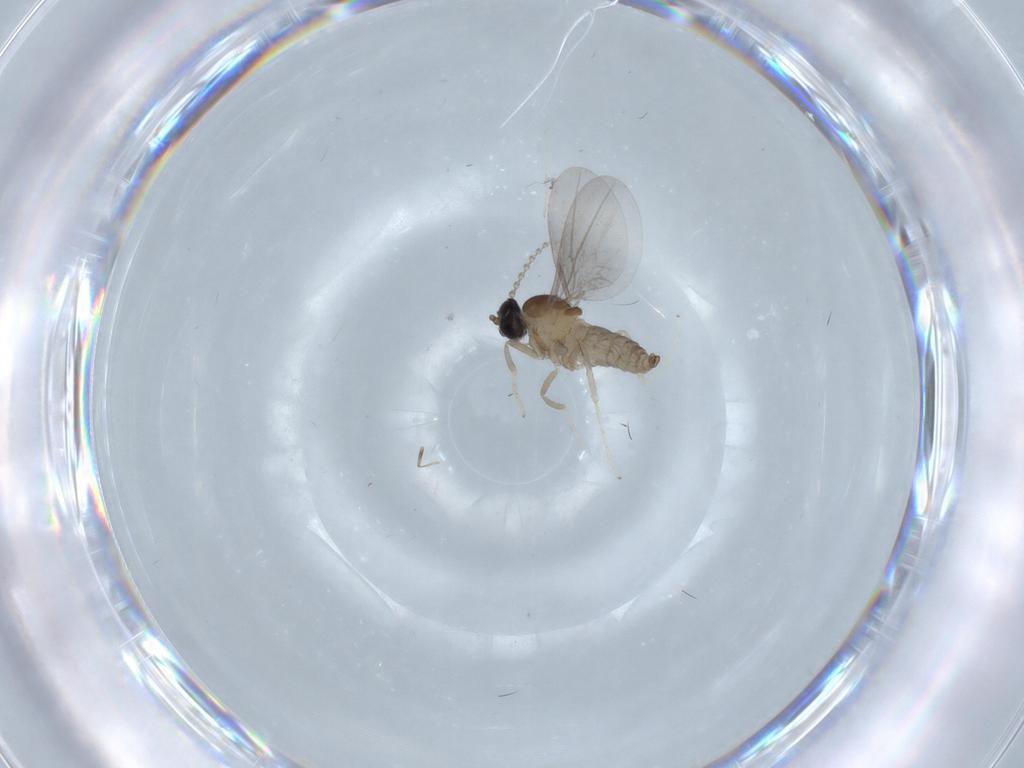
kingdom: Animalia
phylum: Arthropoda
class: Insecta
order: Diptera
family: Cecidomyiidae
